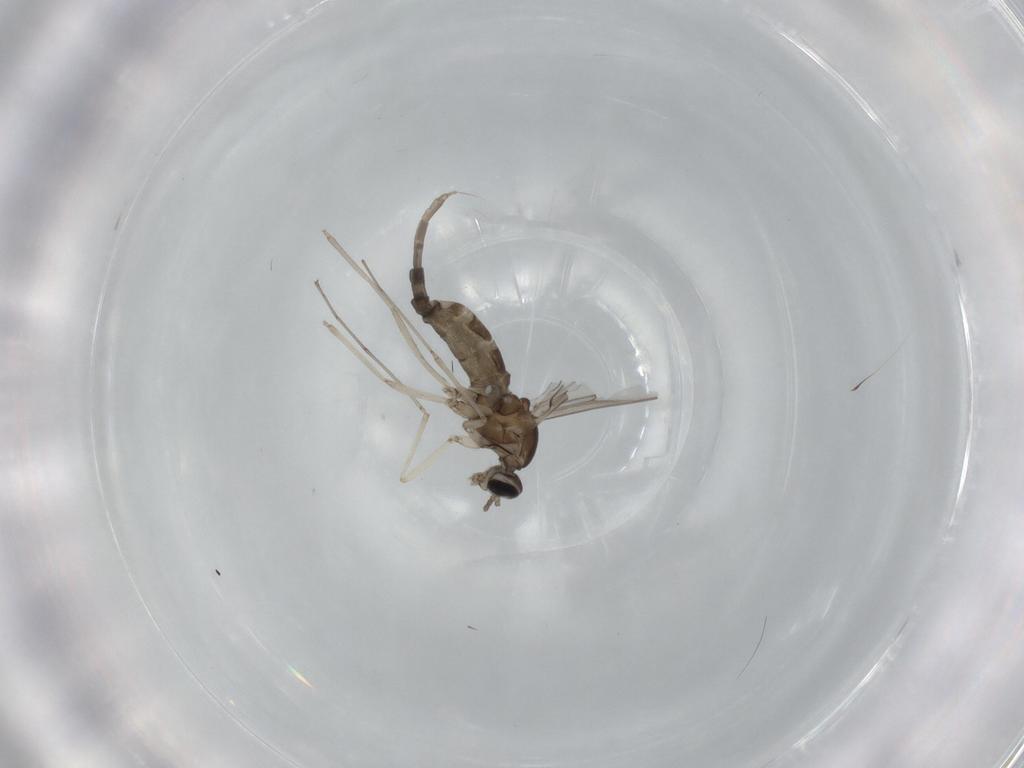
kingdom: Animalia
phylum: Arthropoda
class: Insecta
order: Diptera
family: Cecidomyiidae
